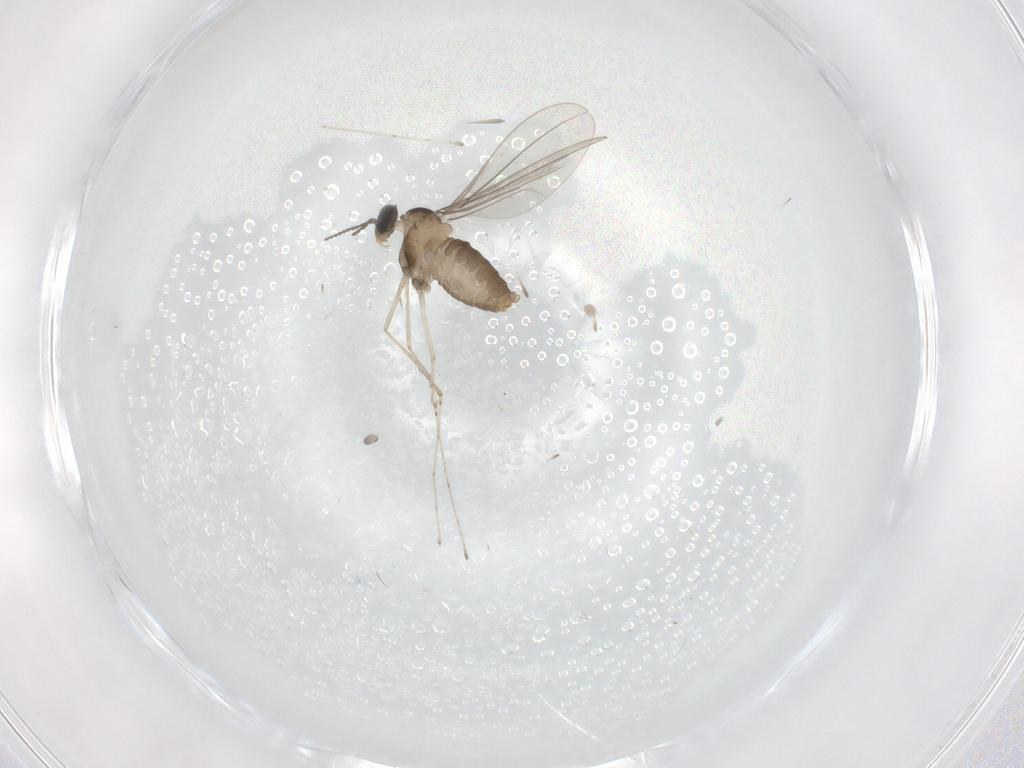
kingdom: Animalia
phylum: Arthropoda
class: Insecta
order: Diptera
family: Cecidomyiidae
